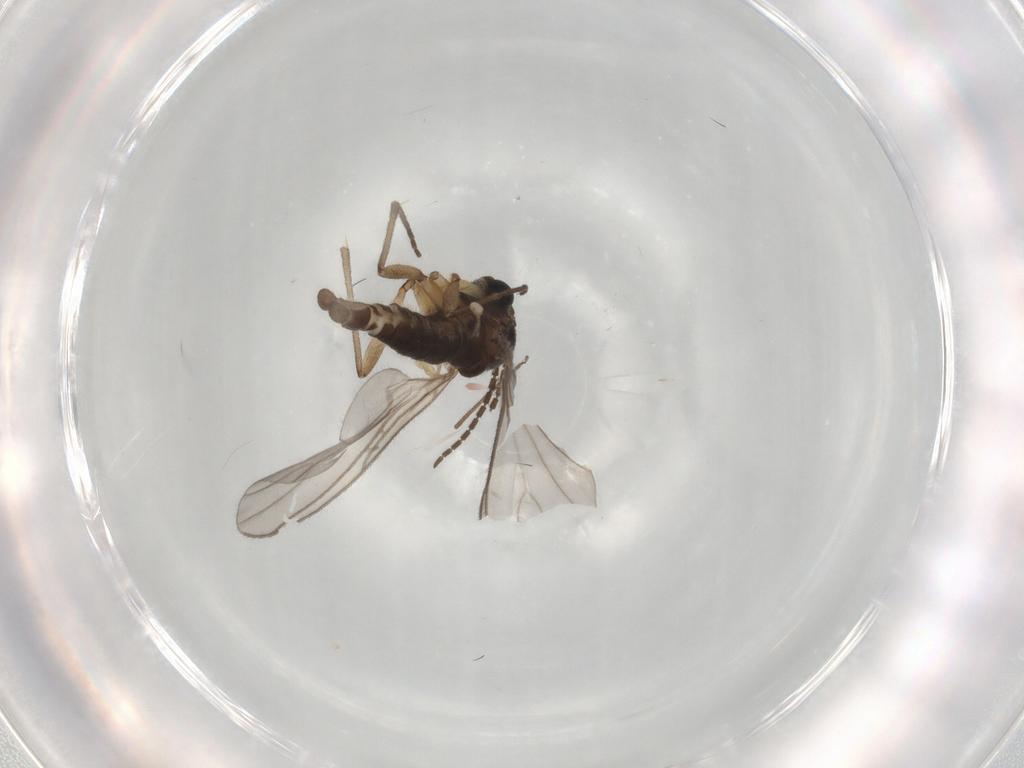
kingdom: Animalia
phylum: Arthropoda
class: Insecta
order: Diptera
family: Sciaridae
